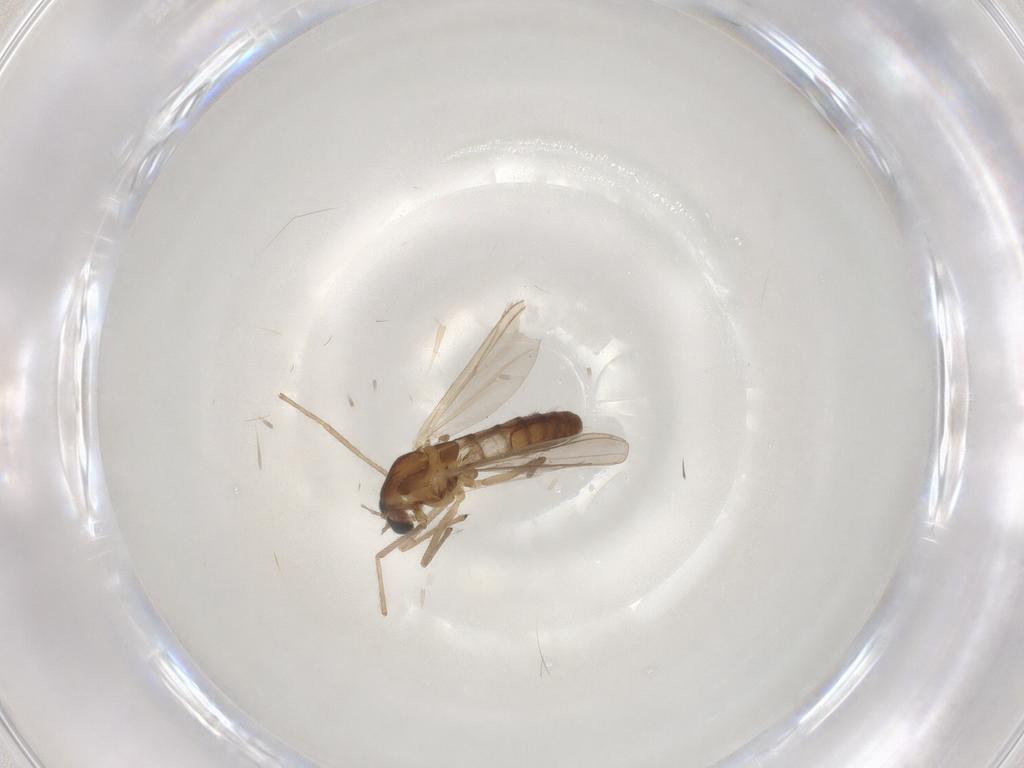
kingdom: Animalia
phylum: Arthropoda
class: Insecta
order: Diptera
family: Chironomidae
